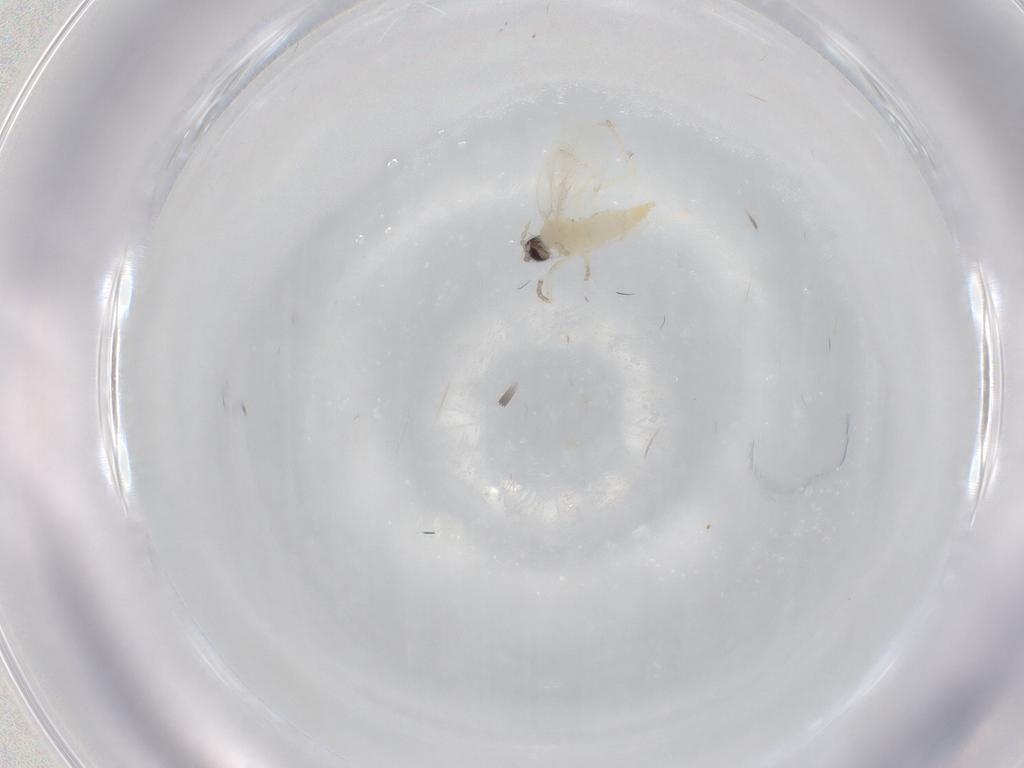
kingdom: Animalia
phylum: Arthropoda
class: Insecta
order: Diptera
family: Cecidomyiidae
